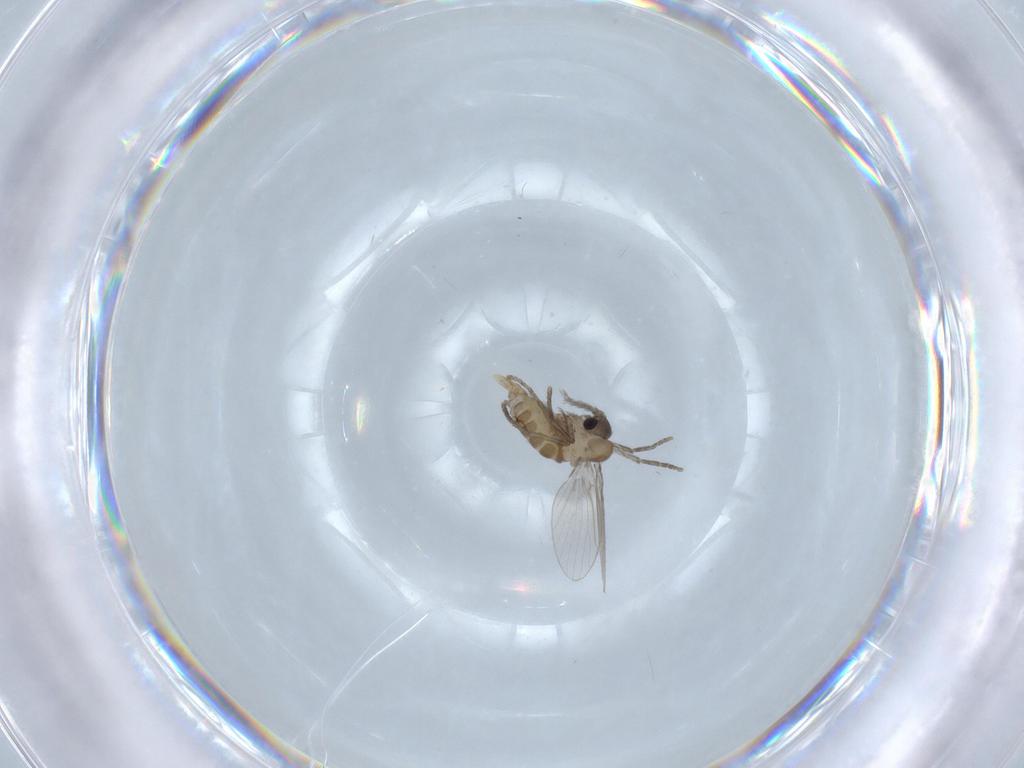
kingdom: Animalia
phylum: Arthropoda
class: Insecta
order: Diptera
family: Psychodidae
